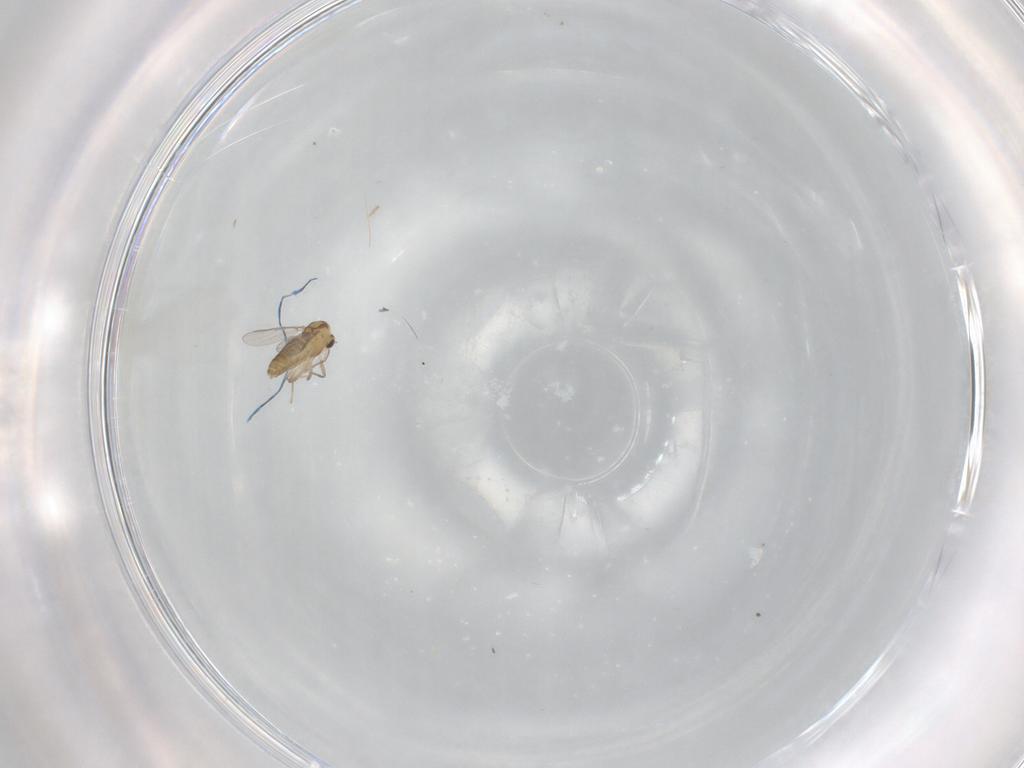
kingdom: Animalia
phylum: Arthropoda
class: Insecta
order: Diptera
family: Chironomidae
